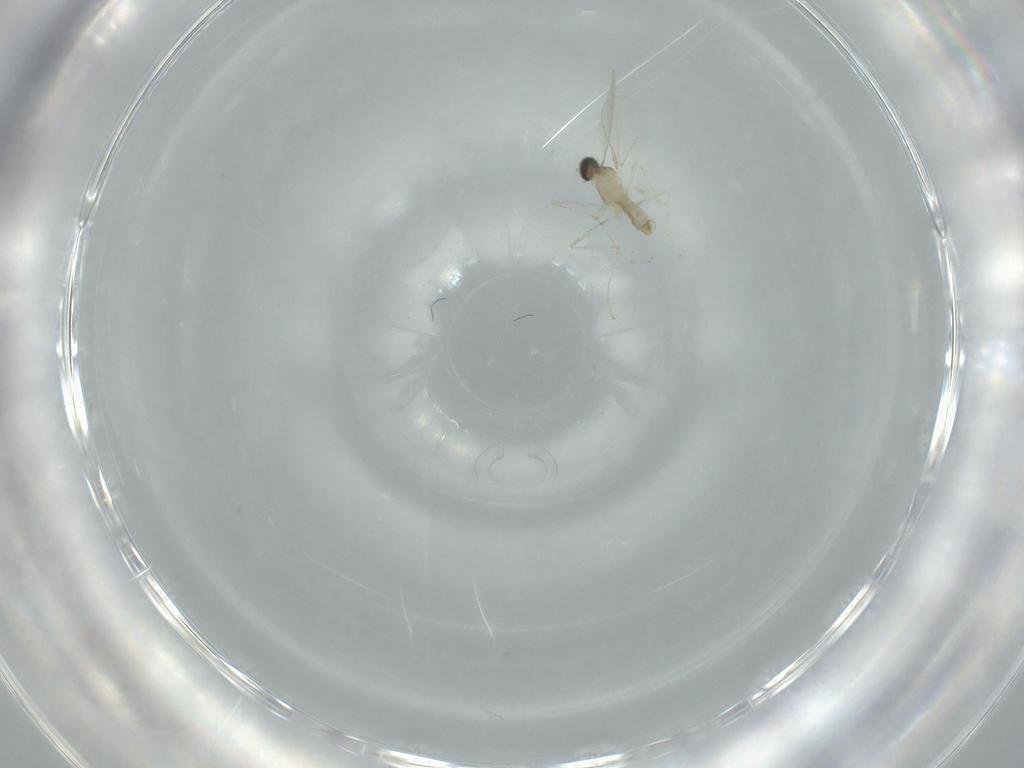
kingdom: Animalia
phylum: Arthropoda
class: Insecta
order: Diptera
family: Cecidomyiidae
